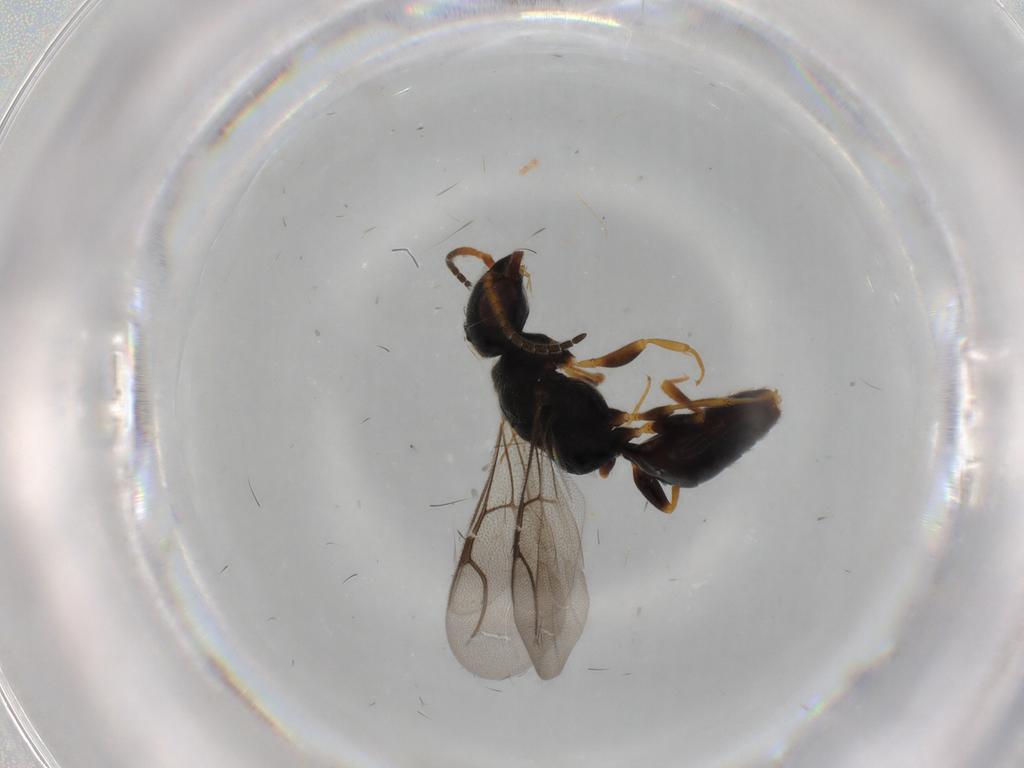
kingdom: Animalia
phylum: Arthropoda
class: Insecta
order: Hymenoptera
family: Bethylidae
